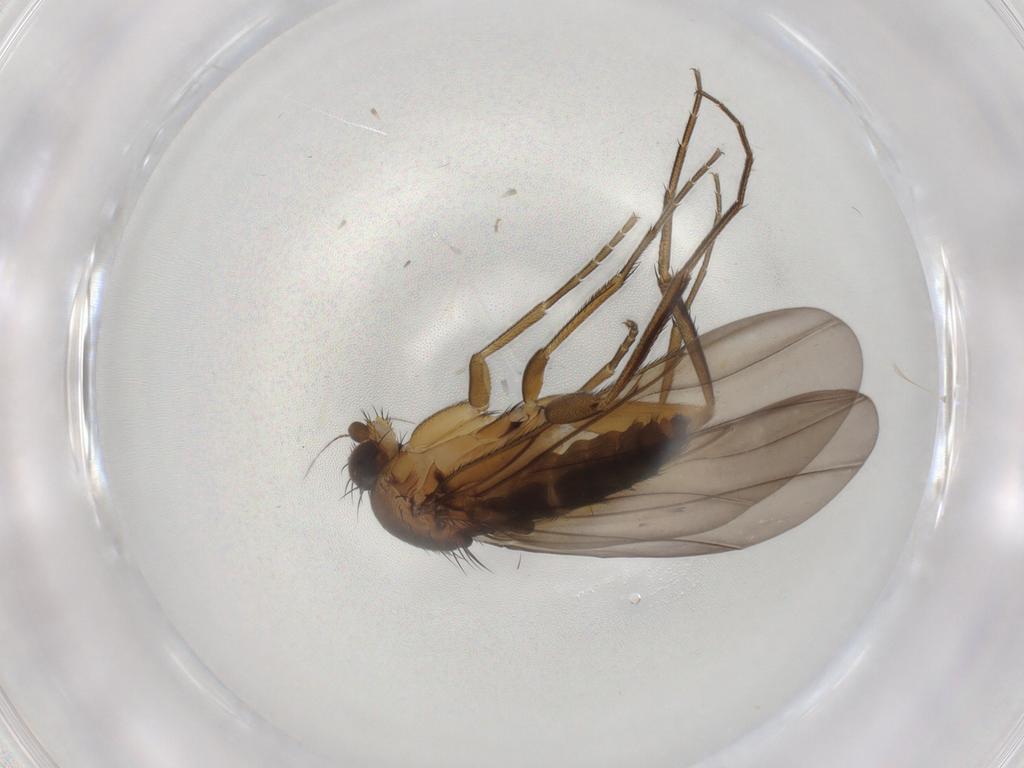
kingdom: Animalia
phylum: Arthropoda
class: Insecta
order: Diptera
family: Phoridae
